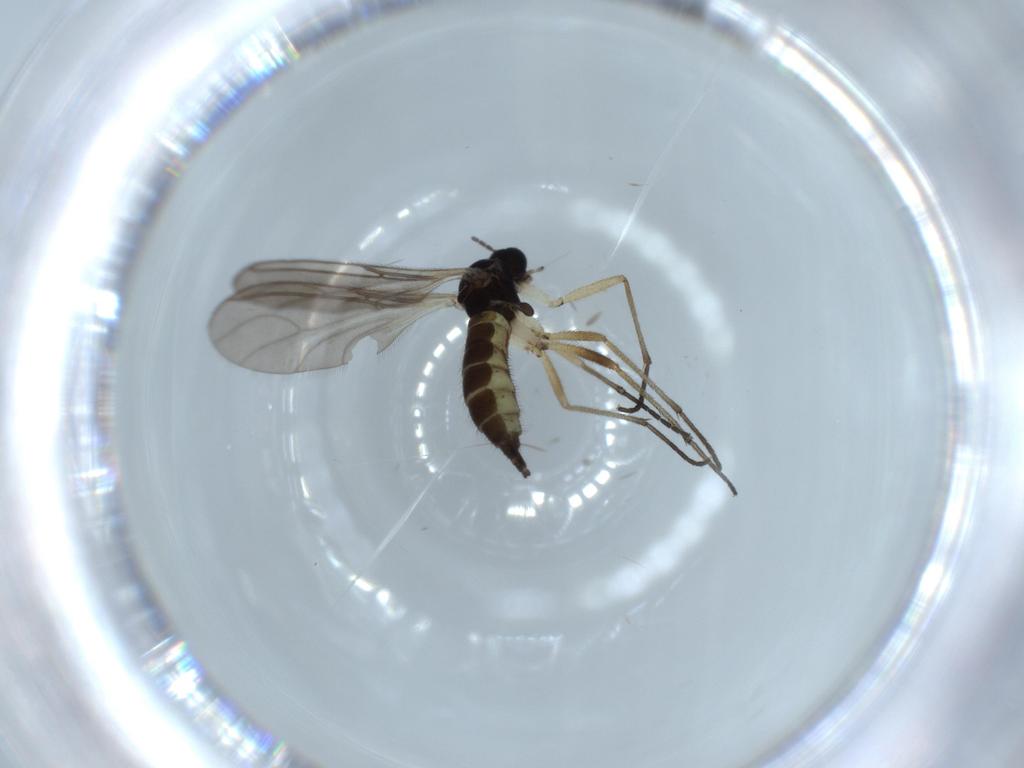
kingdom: Animalia
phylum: Arthropoda
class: Insecta
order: Diptera
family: Sciaridae
